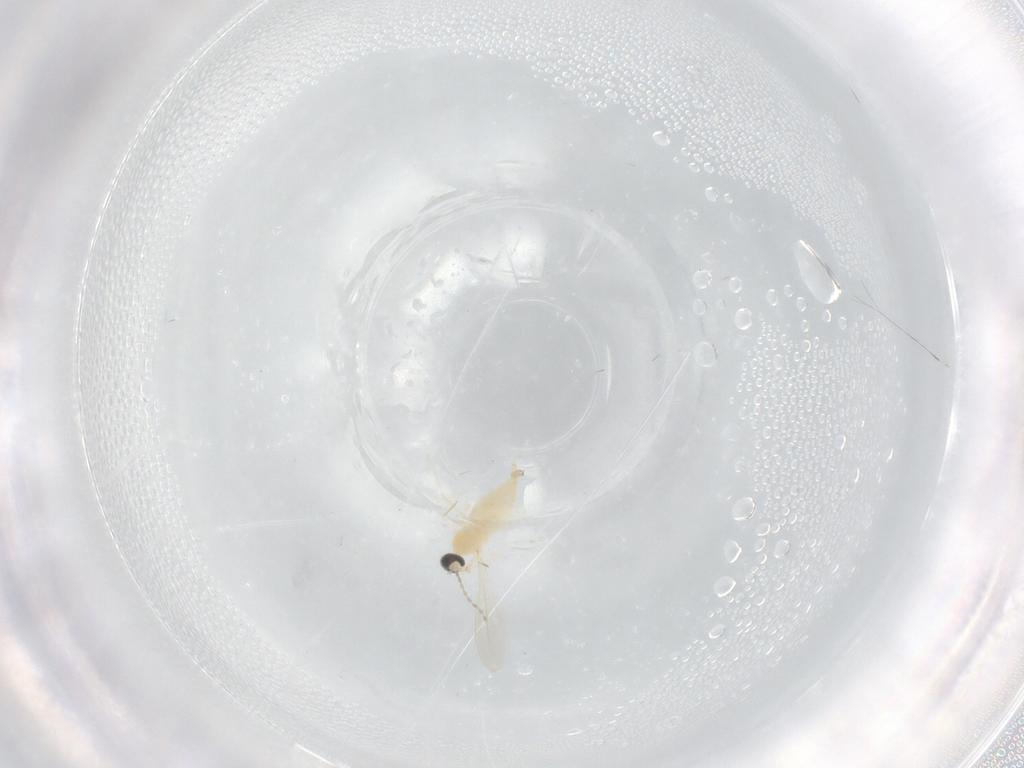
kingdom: Animalia
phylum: Arthropoda
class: Insecta
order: Diptera
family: Cecidomyiidae
